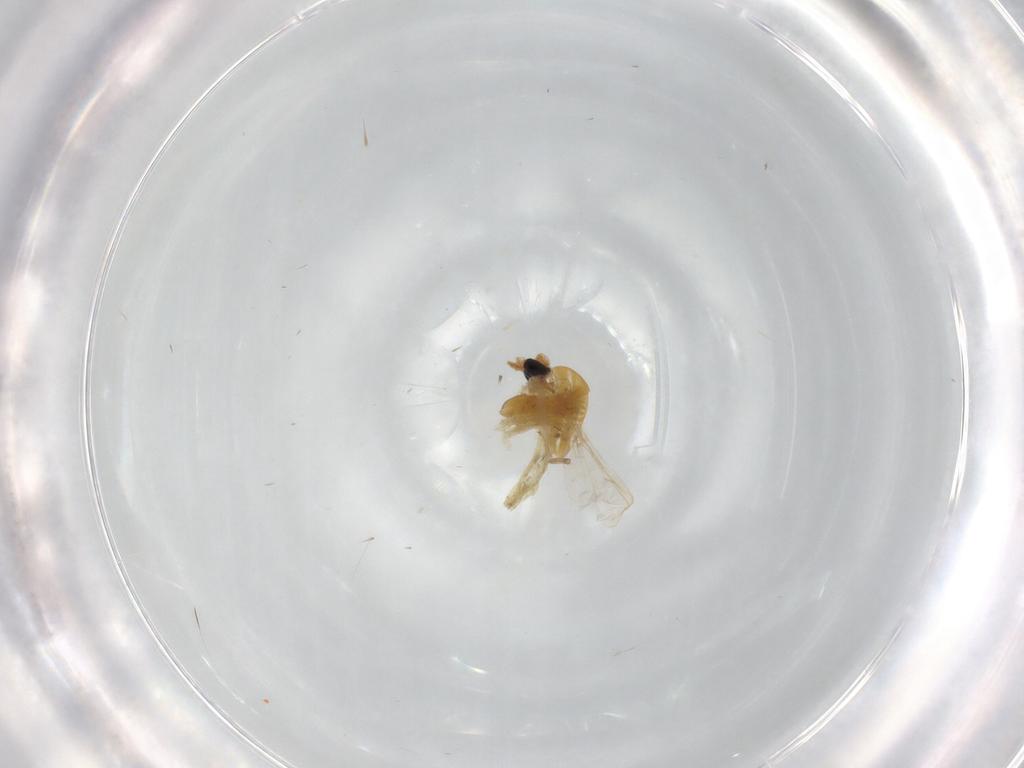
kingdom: Animalia
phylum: Arthropoda
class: Insecta
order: Diptera
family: Chironomidae
